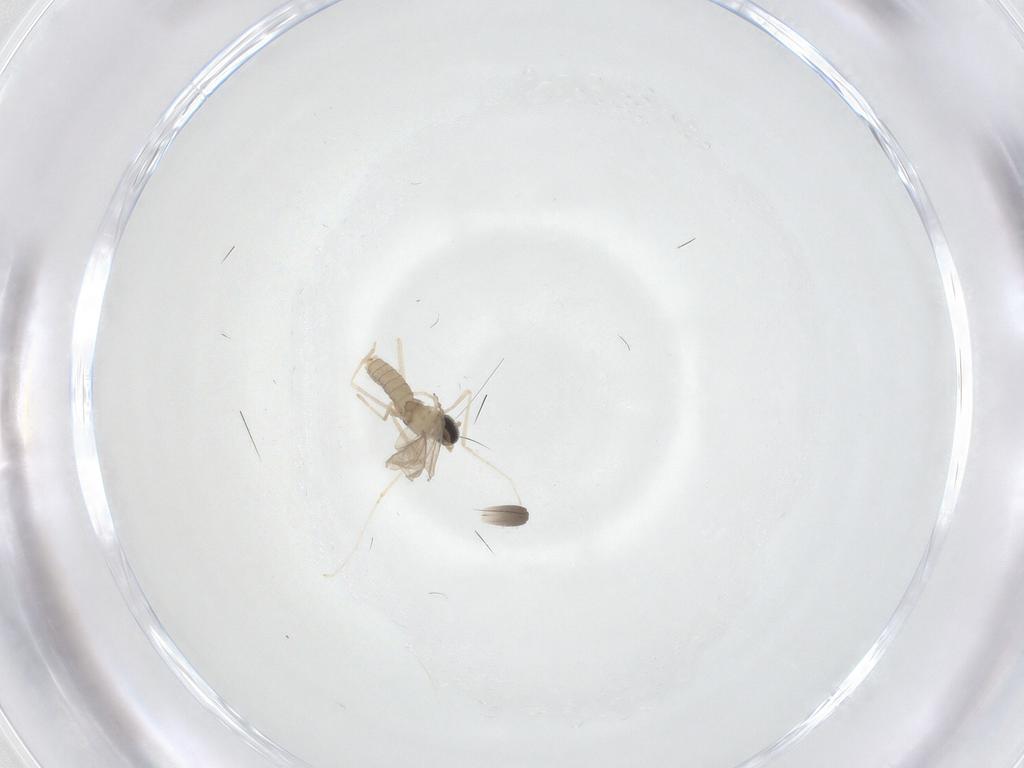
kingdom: Animalia
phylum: Arthropoda
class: Insecta
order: Diptera
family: Cecidomyiidae
